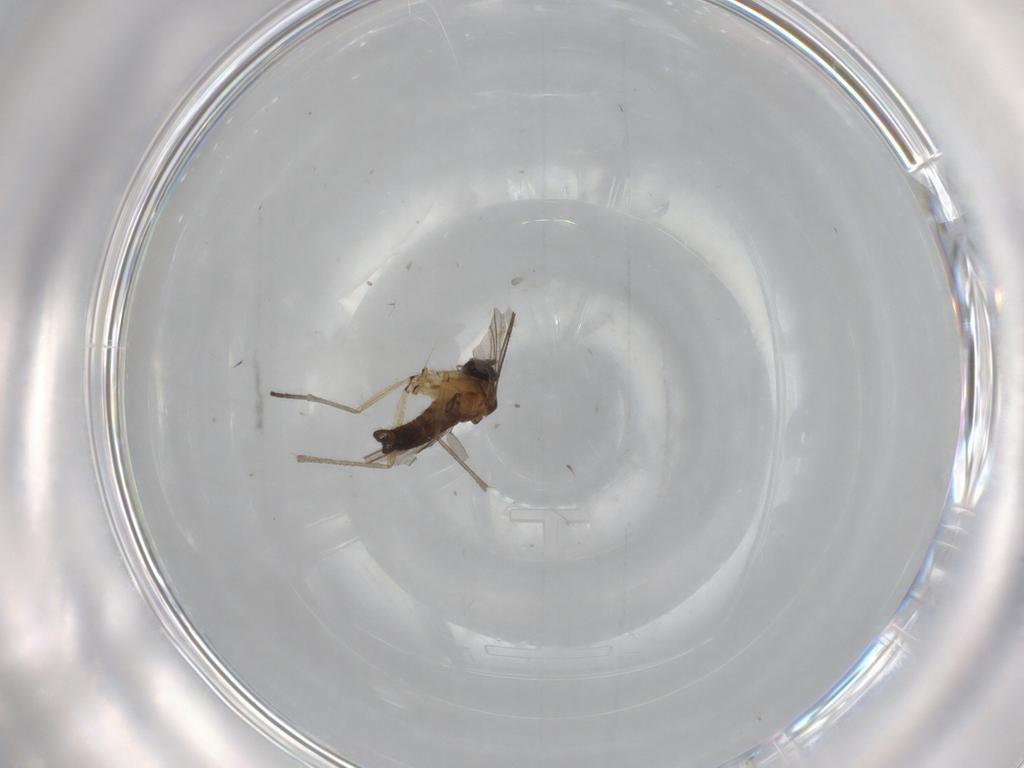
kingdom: Animalia
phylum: Arthropoda
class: Insecta
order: Diptera
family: Sciaridae
